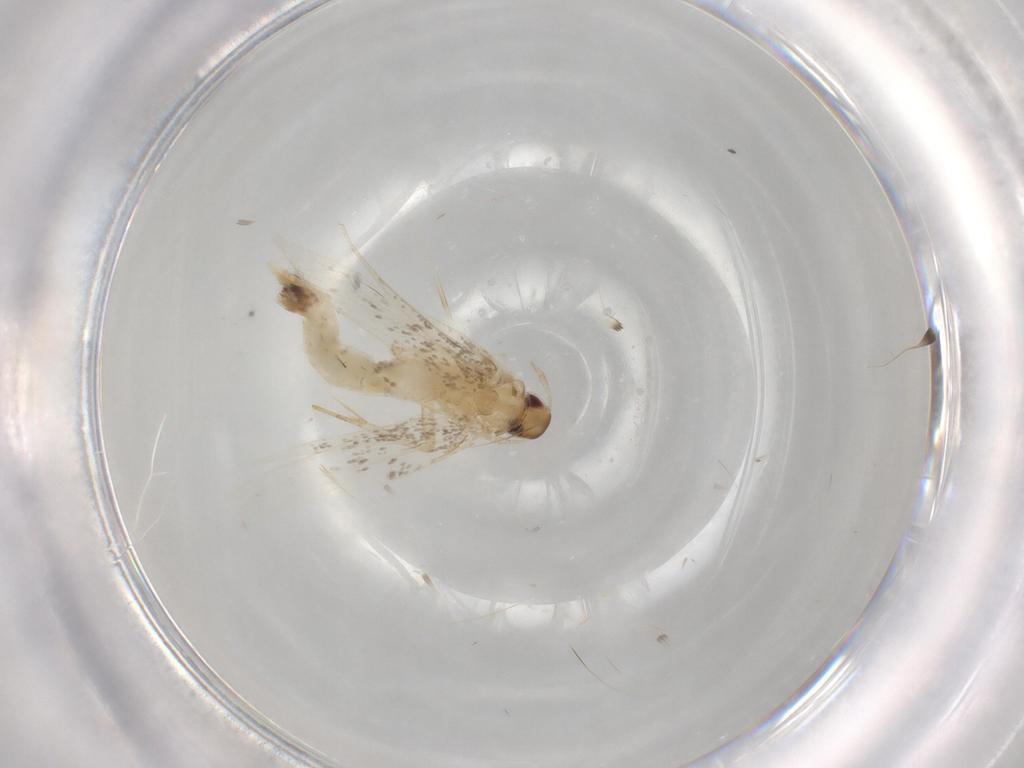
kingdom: Animalia
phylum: Arthropoda
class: Insecta
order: Lepidoptera
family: Cosmopterigidae
